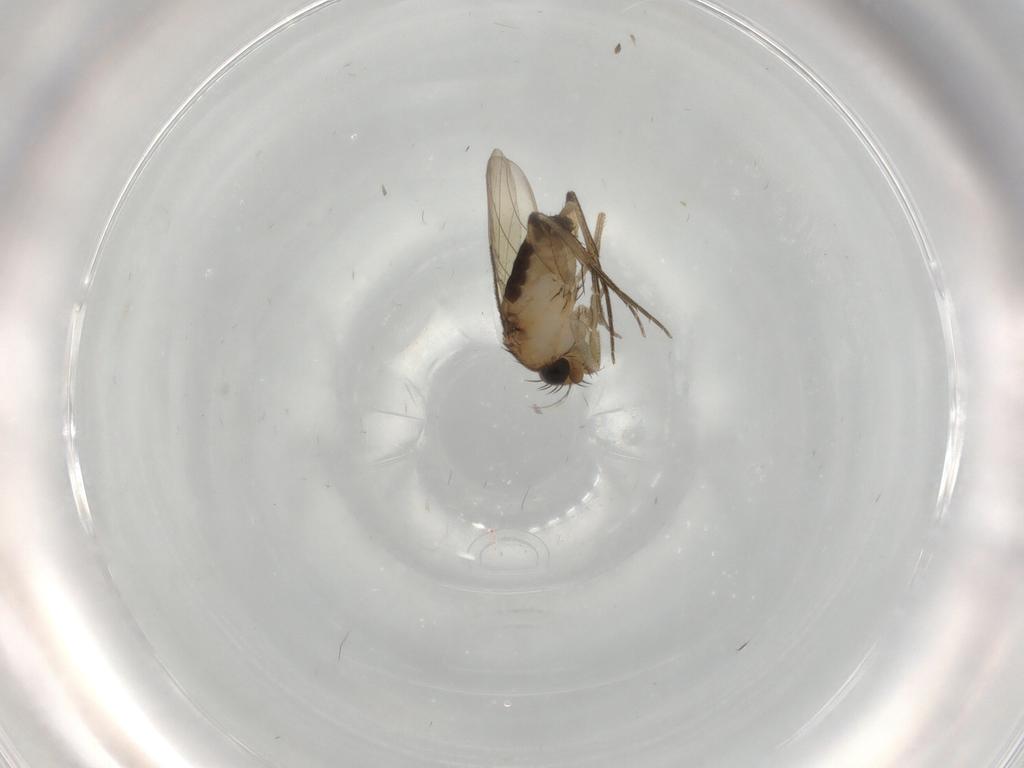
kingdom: Animalia
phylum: Arthropoda
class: Insecta
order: Diptera
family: Phoridae
